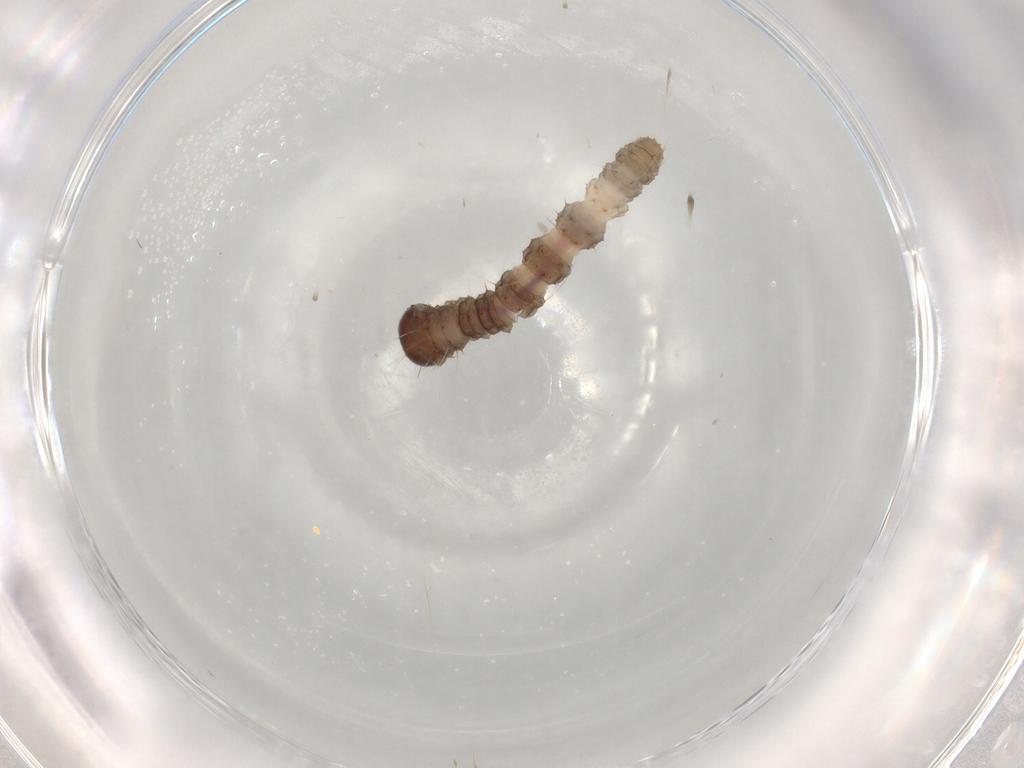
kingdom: Animalia
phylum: Arthropoda
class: Insecta
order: Lepidoptera
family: Geometridae
